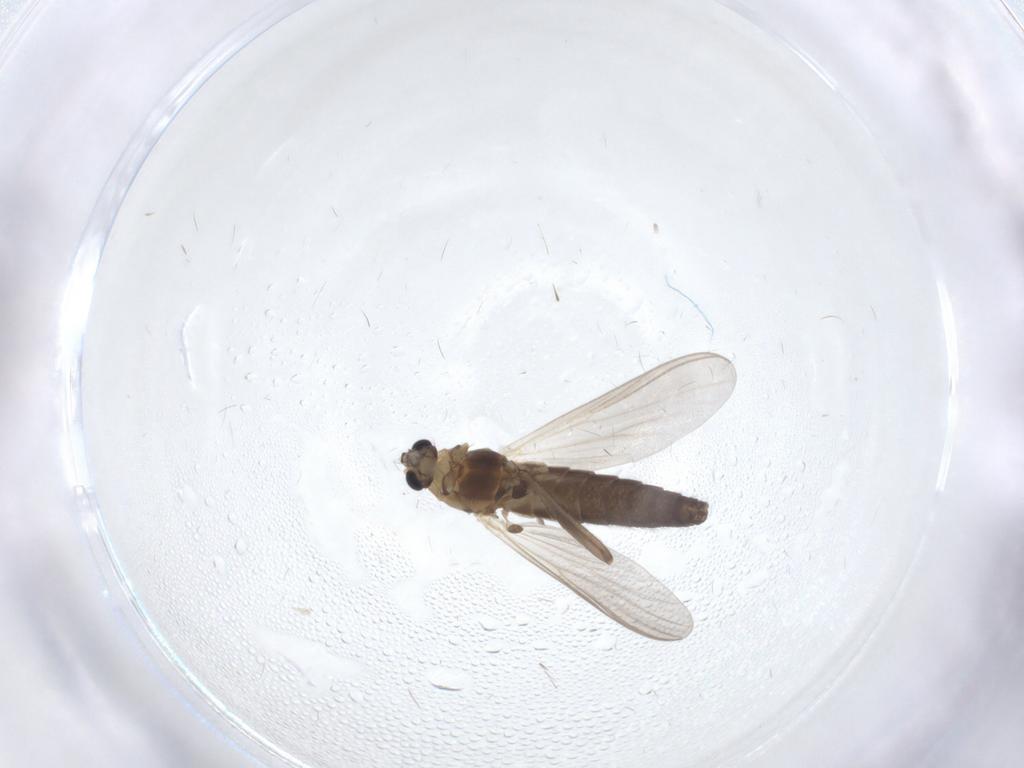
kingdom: Animalia
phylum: Arthropoda
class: Insecta
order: Diptera
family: Chironomidae
